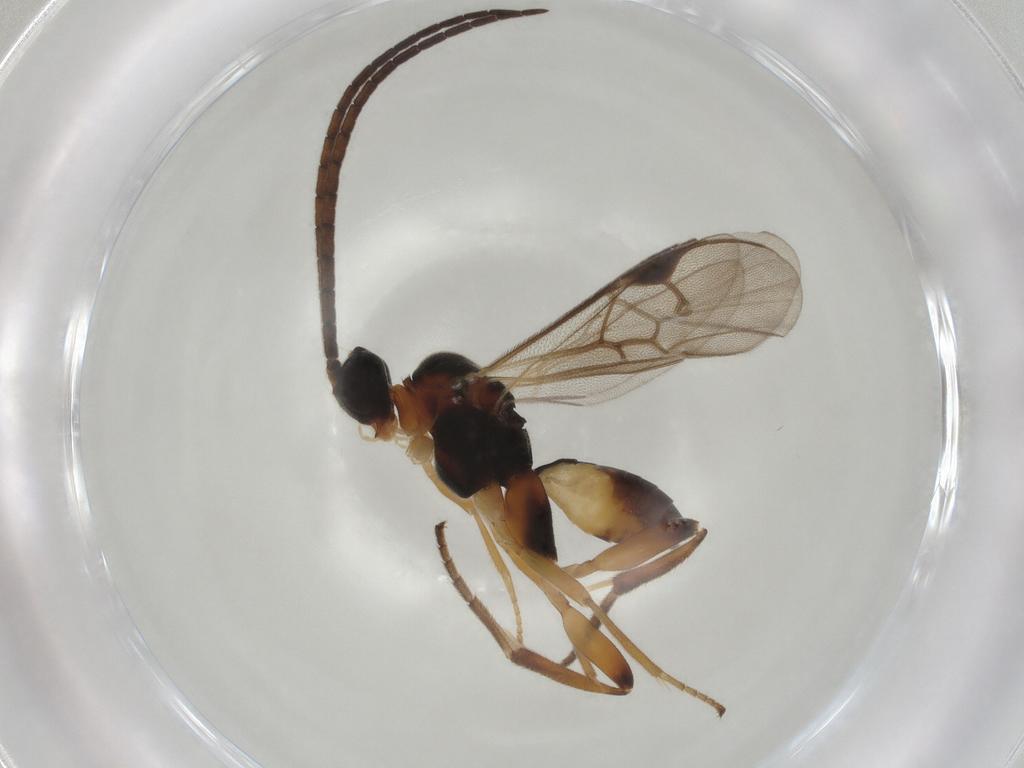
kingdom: Animalia
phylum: Arthropoda
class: Insecta
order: Hymenoptera
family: Braconidae
